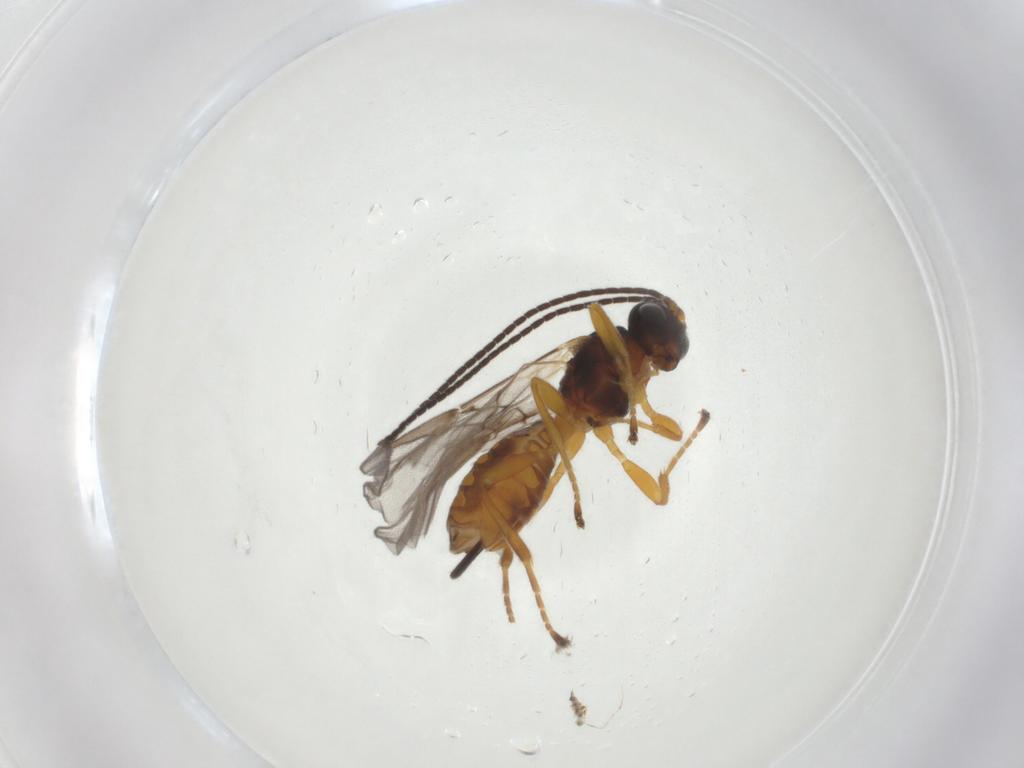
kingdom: Animalia
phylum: Arthropoda
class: Insecta
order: Hymenoptera
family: Braconidae
